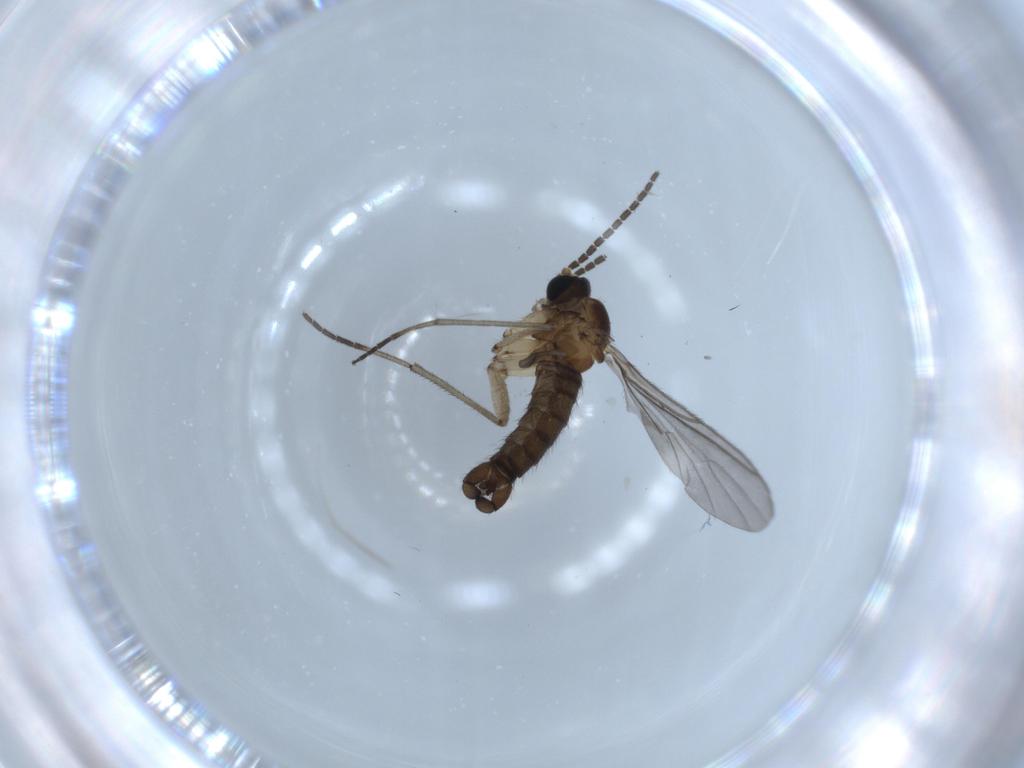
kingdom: Animalia
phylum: Arthropoda
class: Insecta
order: Diptera
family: Sciaridae
